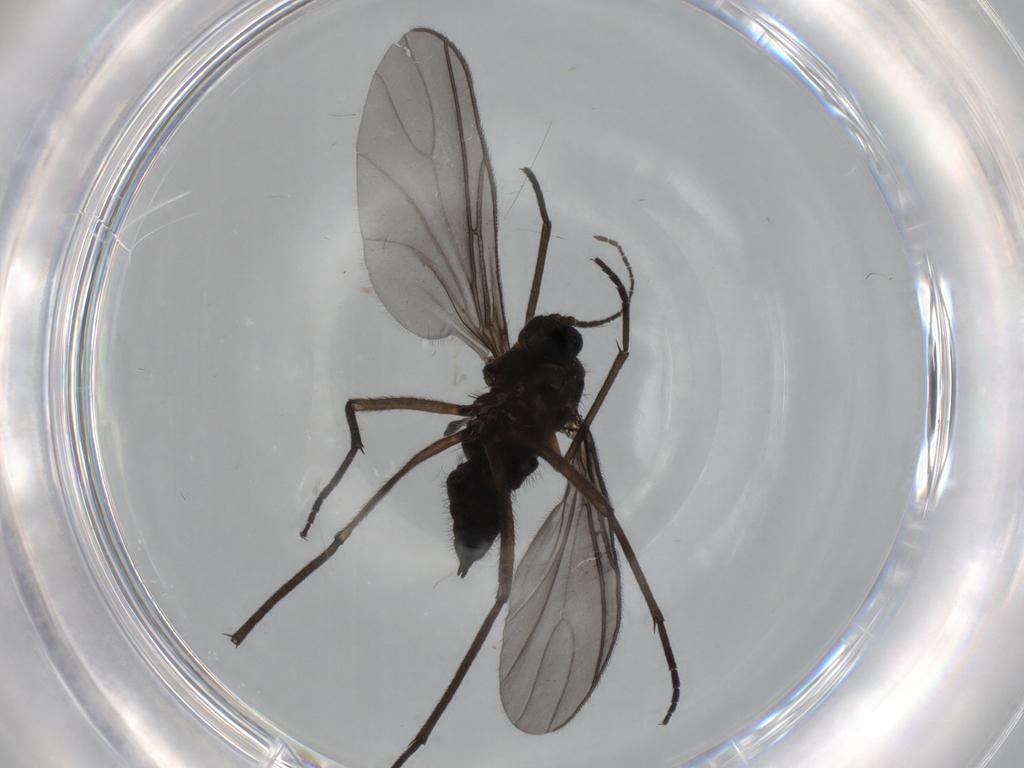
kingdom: Animalia
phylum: Arthropoda
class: Insecta
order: Diptera
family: Sciaridae
